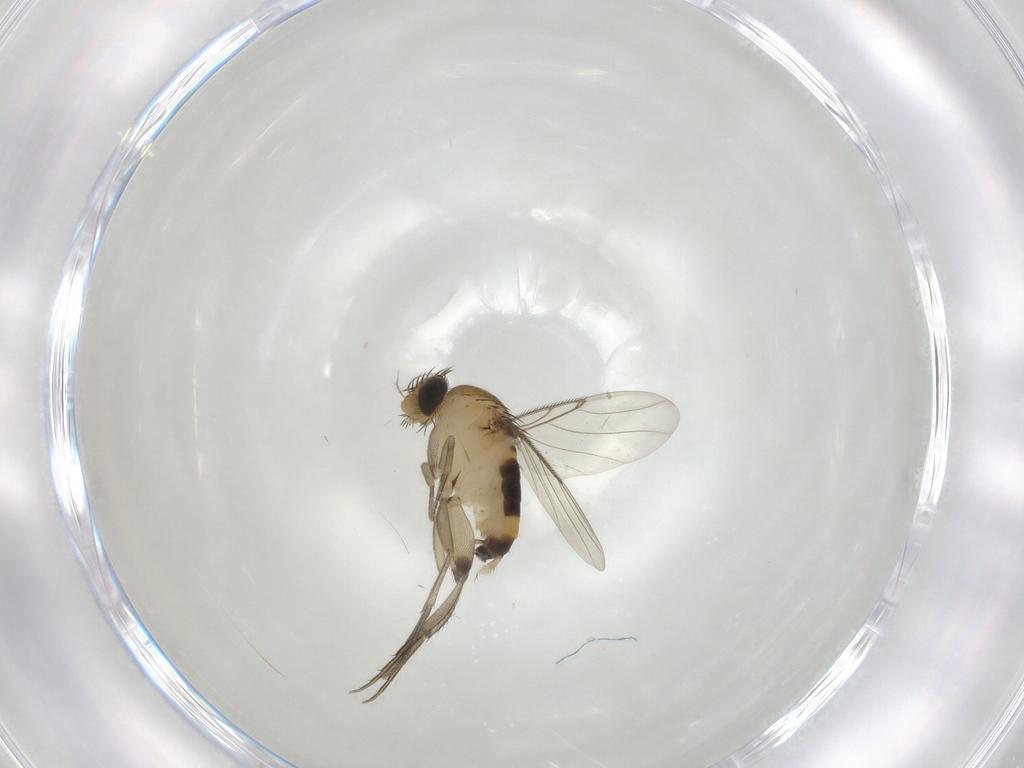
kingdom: Animalia
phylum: Arthropoda
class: Insecta
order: Diptera
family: Phoridae
